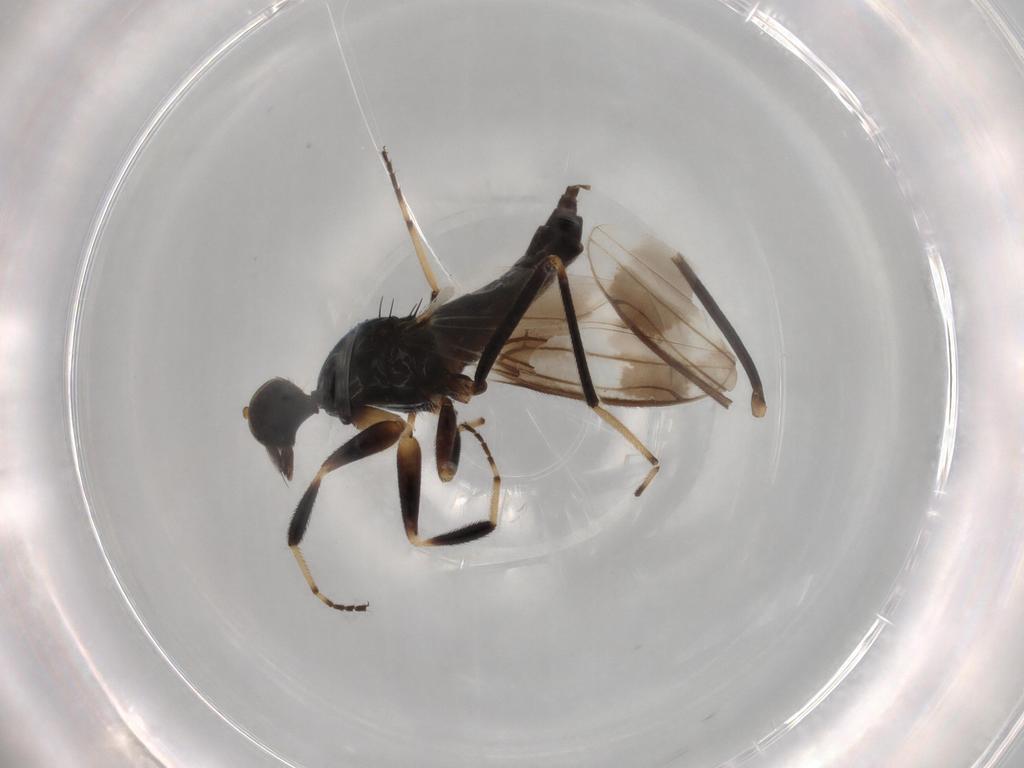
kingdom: Animalia
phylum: Arthropoda
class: Insecta
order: Diptera
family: Hybotidae
